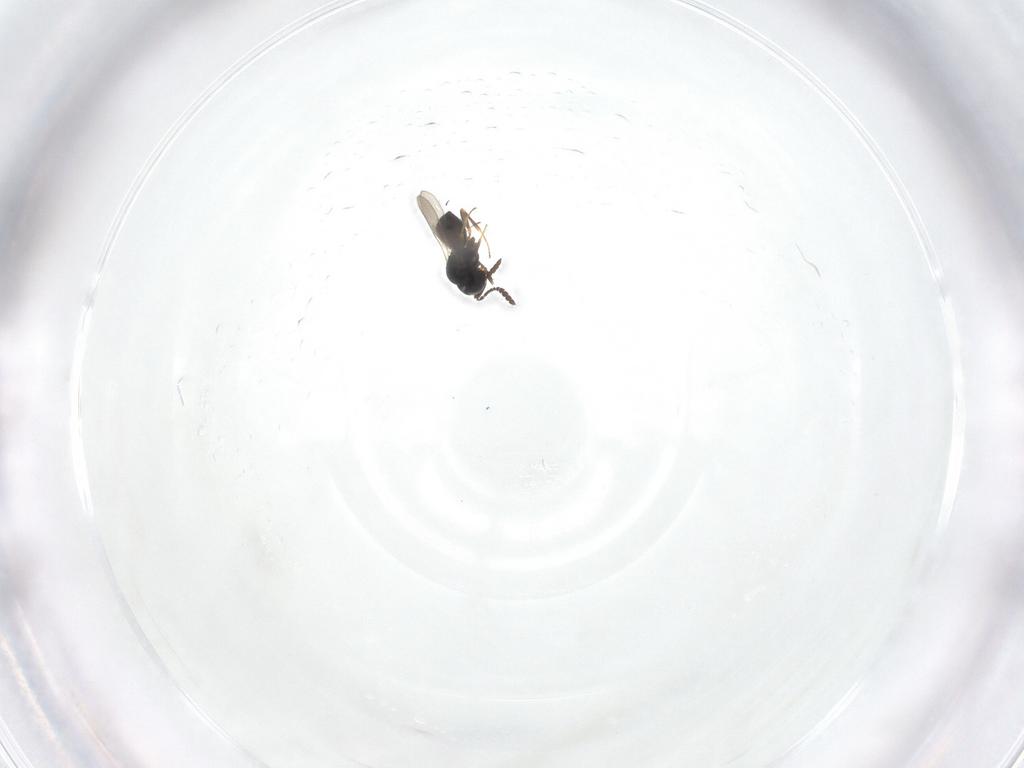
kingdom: Animalia
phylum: Arthropoda
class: Insecta
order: Hymenoptera
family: Scelionidae
